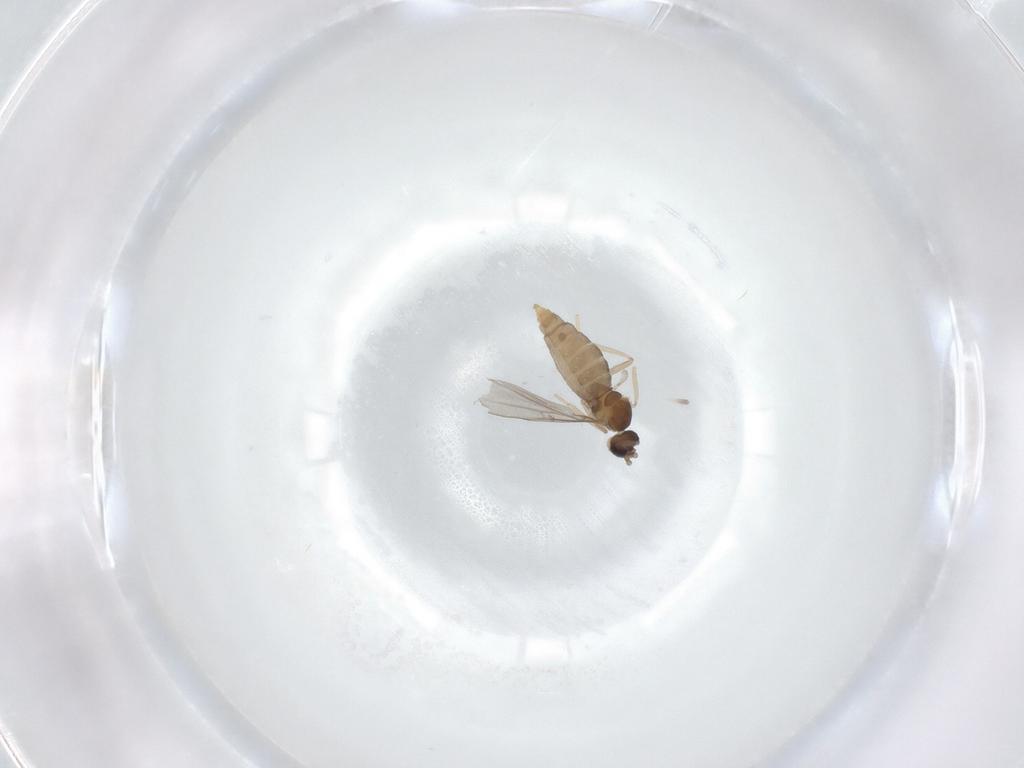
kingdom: Animalia
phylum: Arthropoda
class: Insecta
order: Diptera
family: Cecidomyiidae
